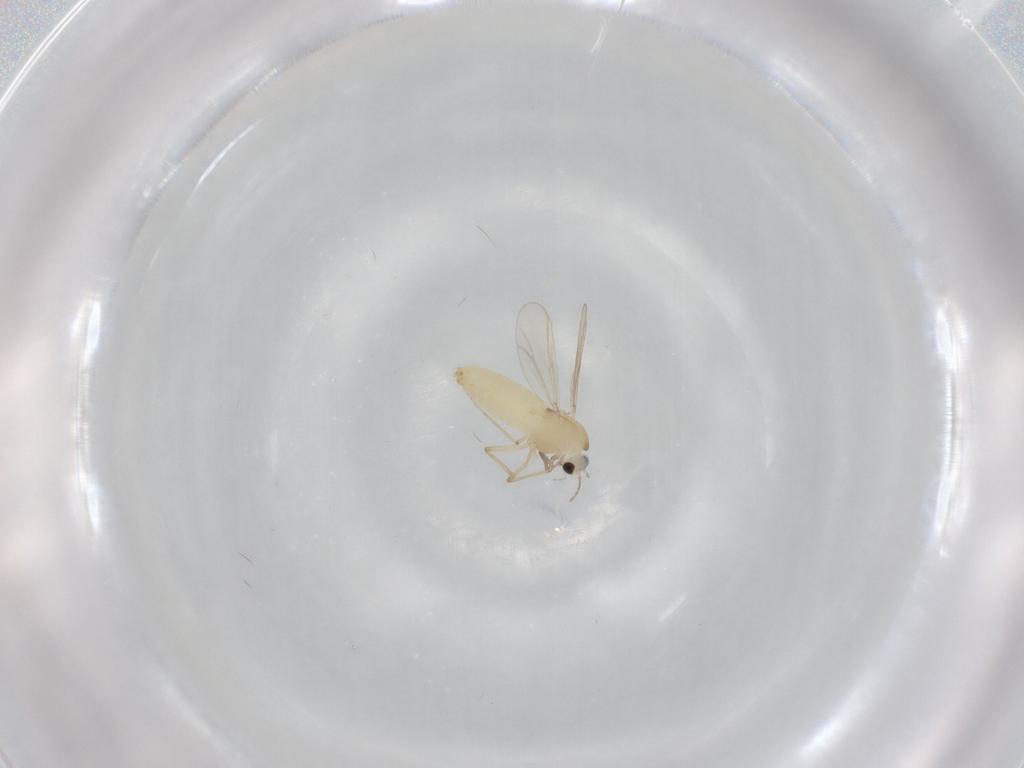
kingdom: Animalia
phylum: Arthropoda
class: Insecta
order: Diptera
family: Chironomidae
